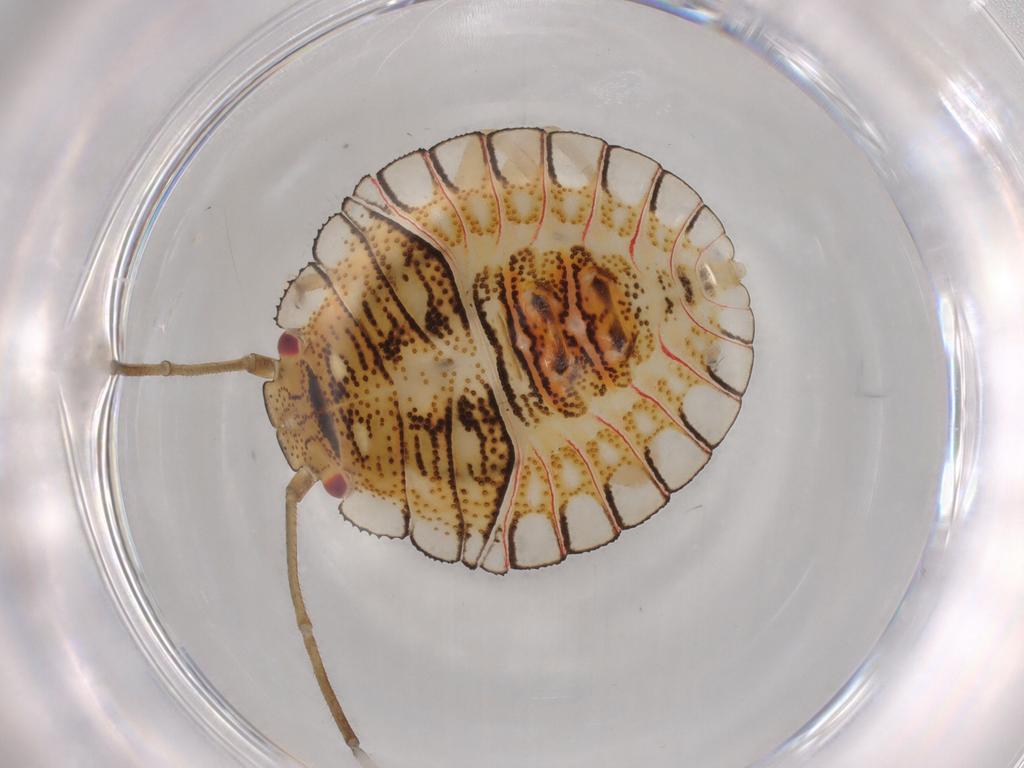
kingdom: Animalia
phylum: Arthropoda
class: Insecta
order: Hemiptera
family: Pentatomidae
